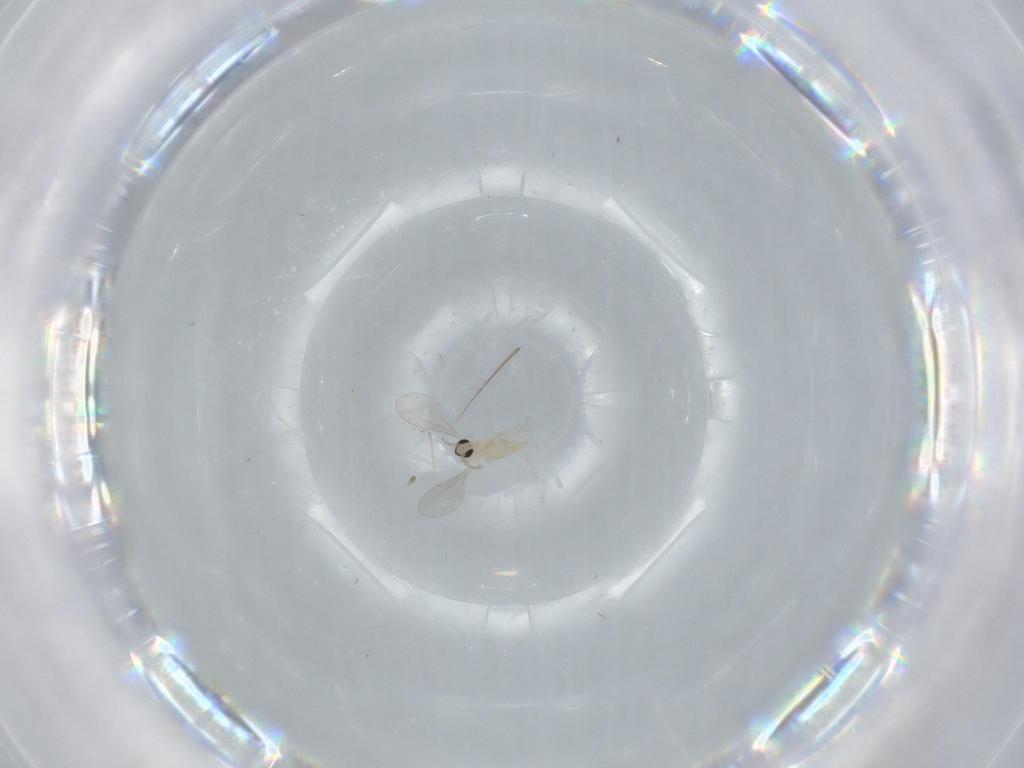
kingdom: Animalia
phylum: Arthropoda
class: Insecta
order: Diptera
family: Cecidomyiidae
